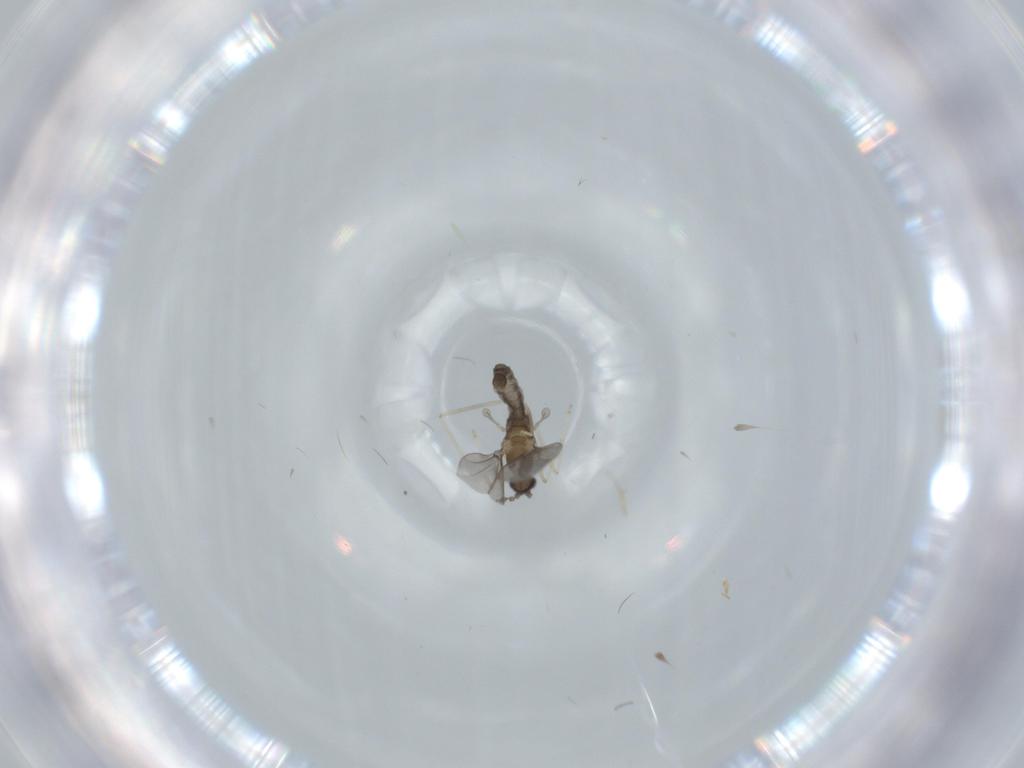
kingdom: Animalia
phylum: Arthropoda
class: Insecta
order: Diptera
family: Cecidomyiidae
